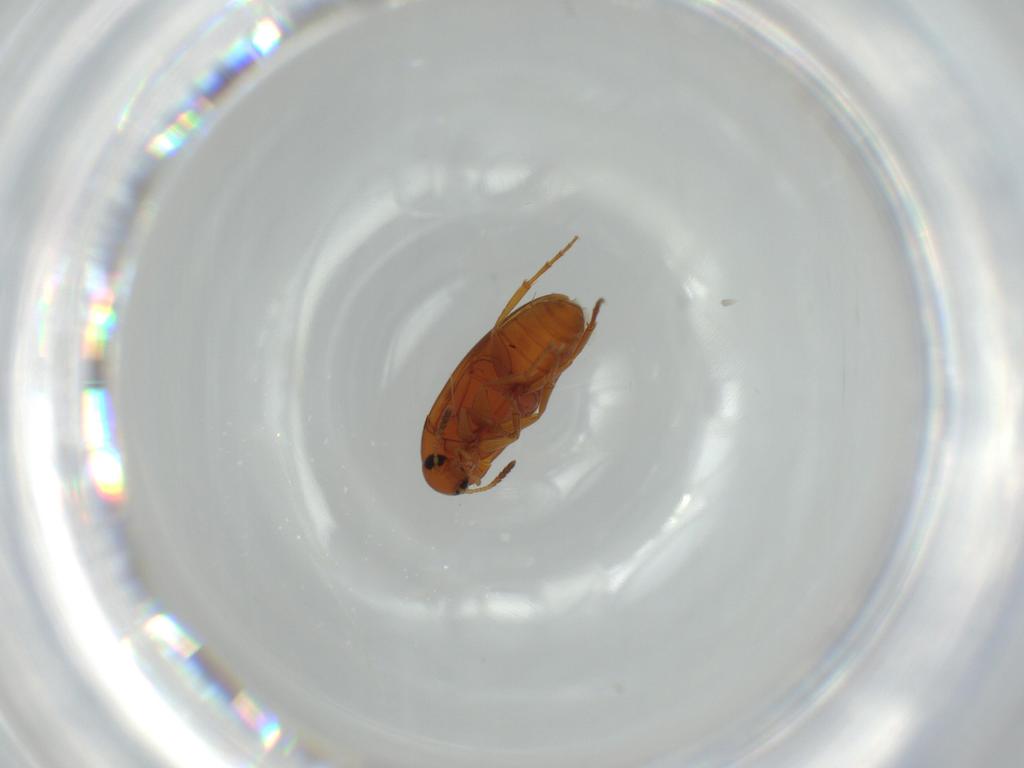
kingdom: Animalia
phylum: Arthropoda
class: Insecta
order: Coleoptera
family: Scraptiidae
